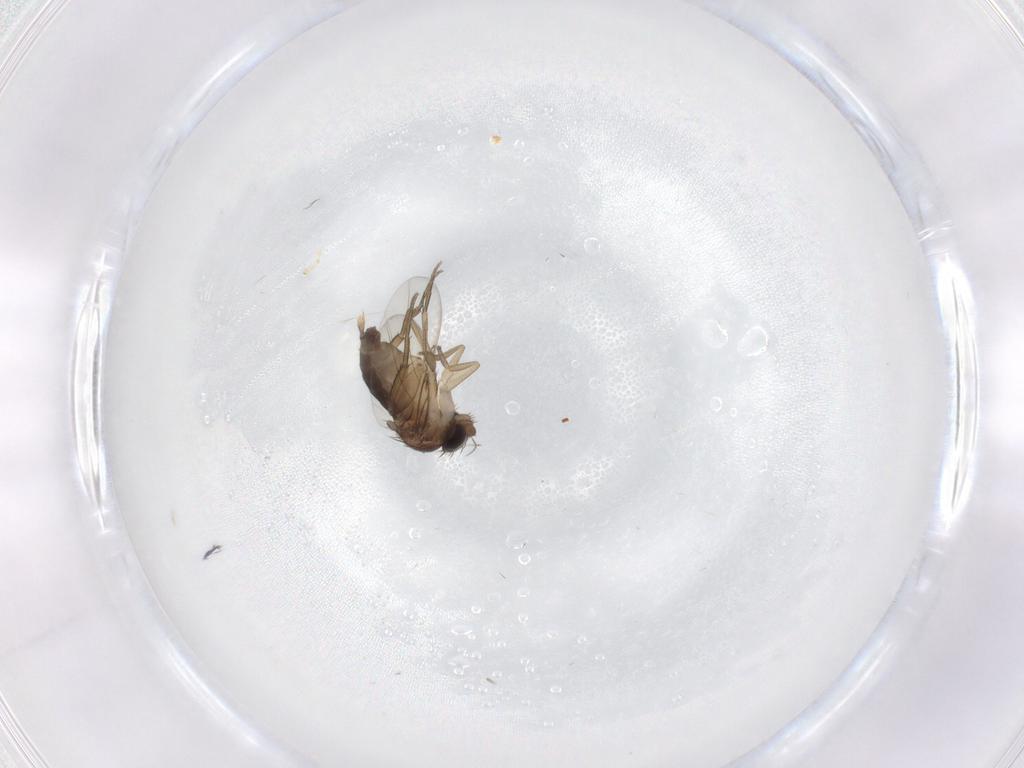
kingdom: Animalia
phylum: Arthropoda
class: Insecta
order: Diptera
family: Phoridae
